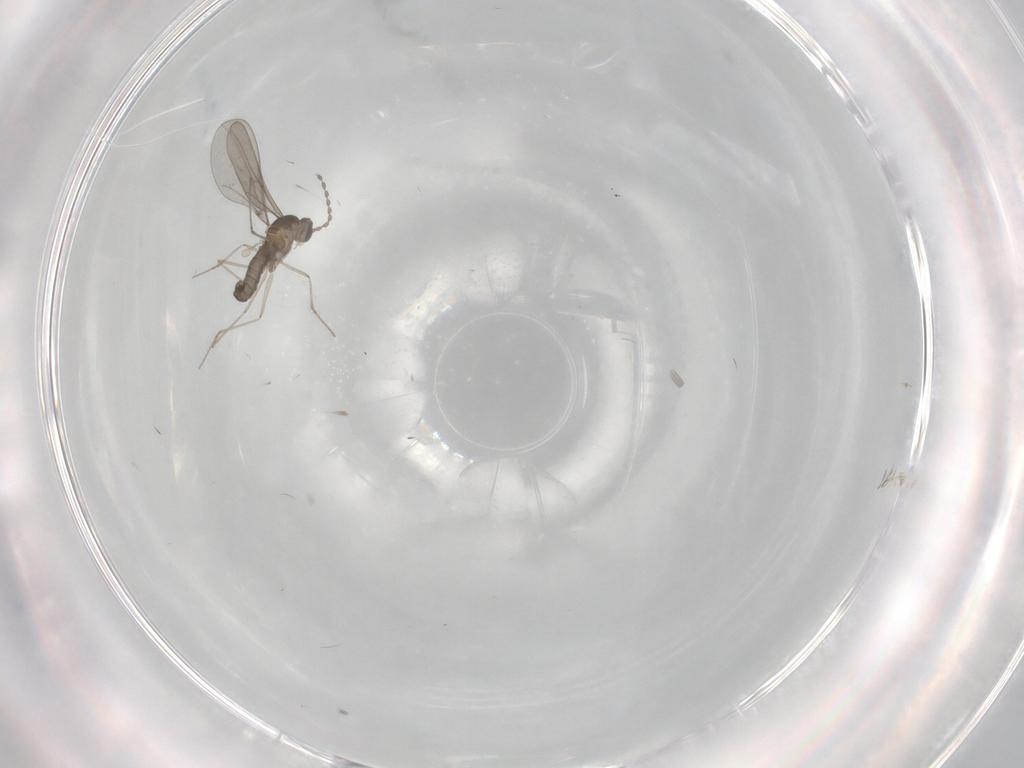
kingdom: Animalia
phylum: Arthropoda
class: Insecta
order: Diptera
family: Cecidomyiidae
